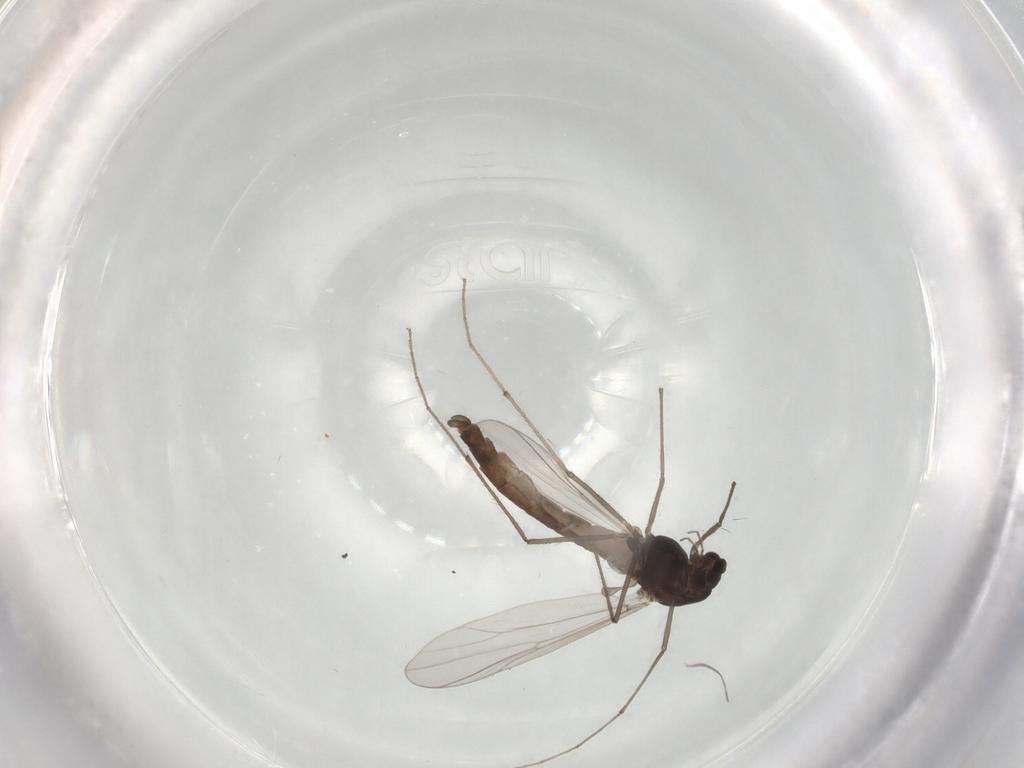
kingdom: Animalia
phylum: Arthropoda
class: Insecta
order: Diptera
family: Chironomidae
